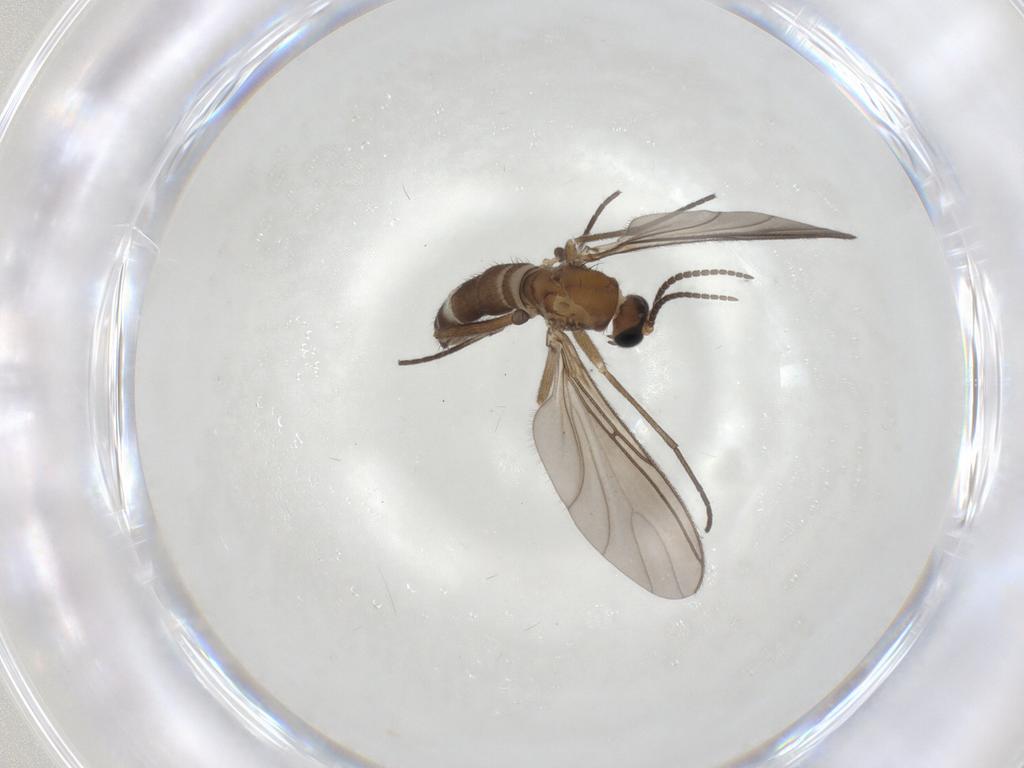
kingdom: Animalia
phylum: Arthropoda
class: Insecta
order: Diptera
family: Sciaridae
